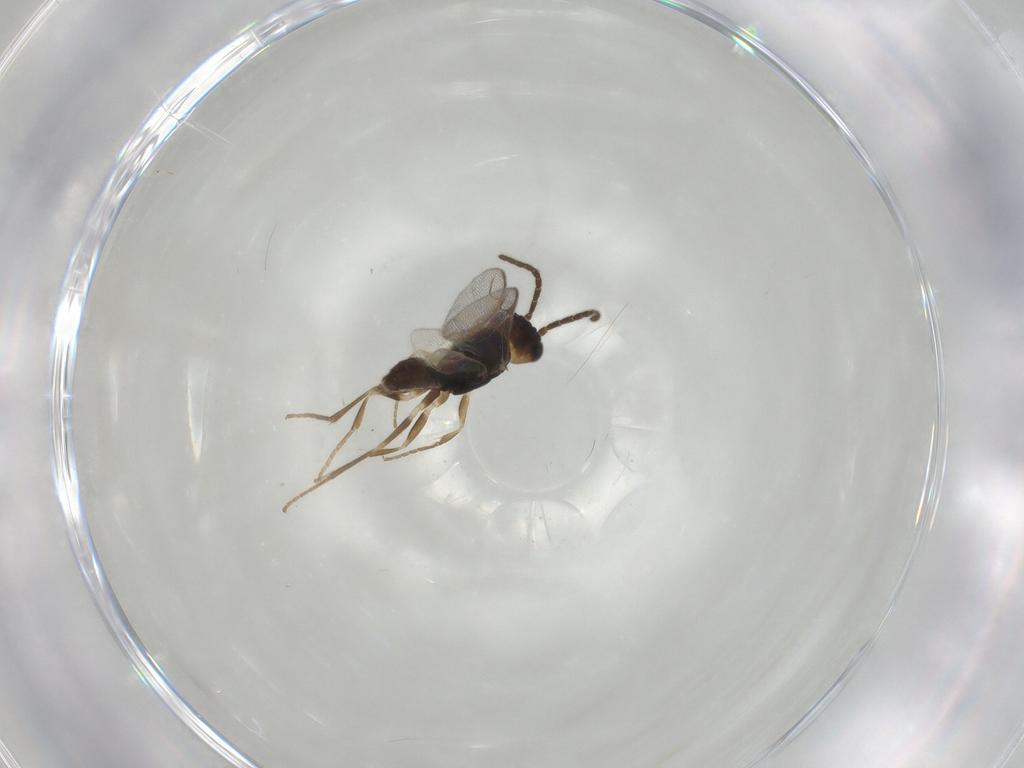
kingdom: Animalia
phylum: Arthropoda
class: Insecta
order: Hymenoptera
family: Dryinidae
